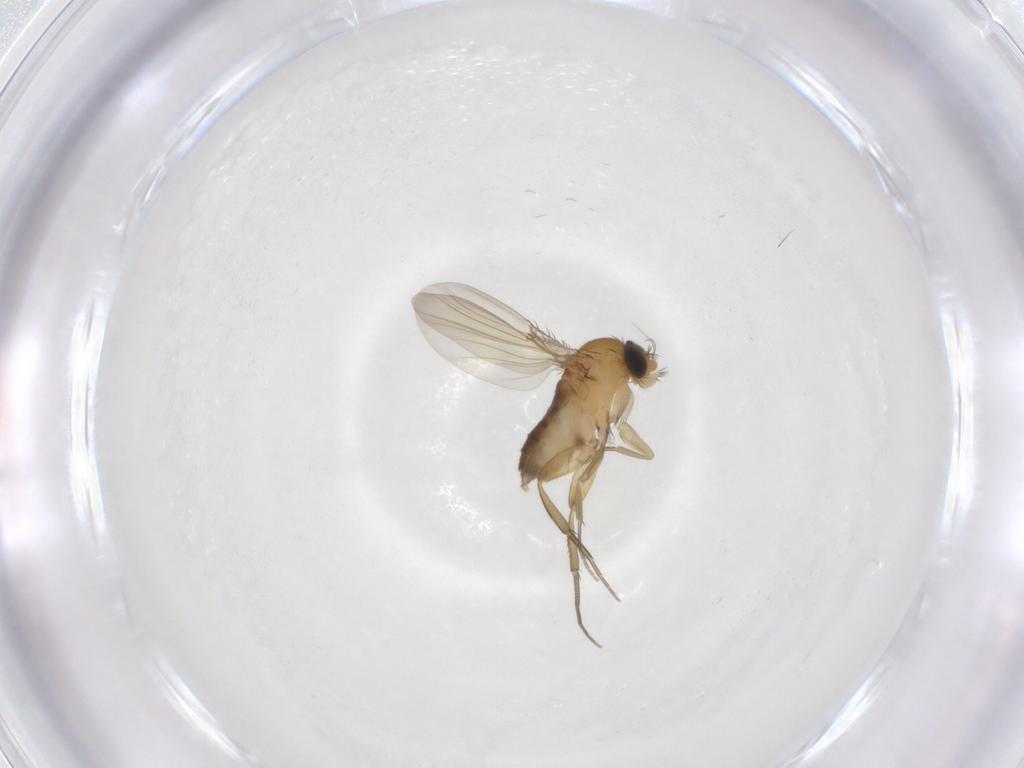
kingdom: Animalia
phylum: Arthropoda
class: Insecta
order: Diptera
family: Phoridae
